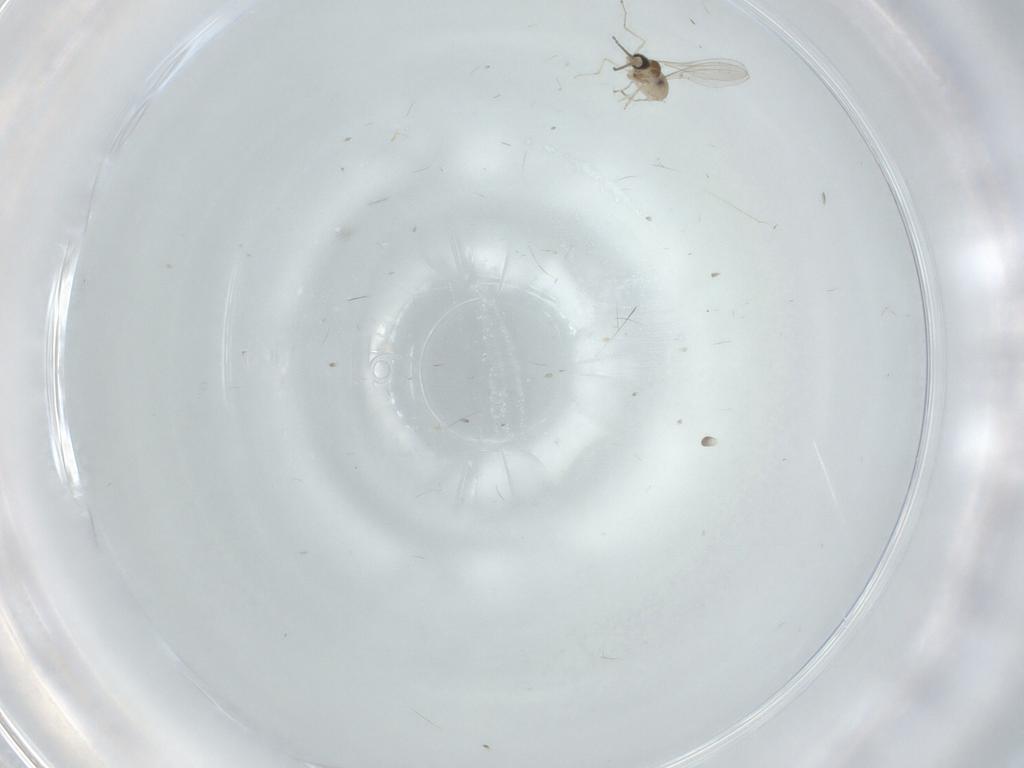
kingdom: Animalia
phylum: Arthropoda
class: Insecta
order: Diptera
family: Cecidomyiidae
